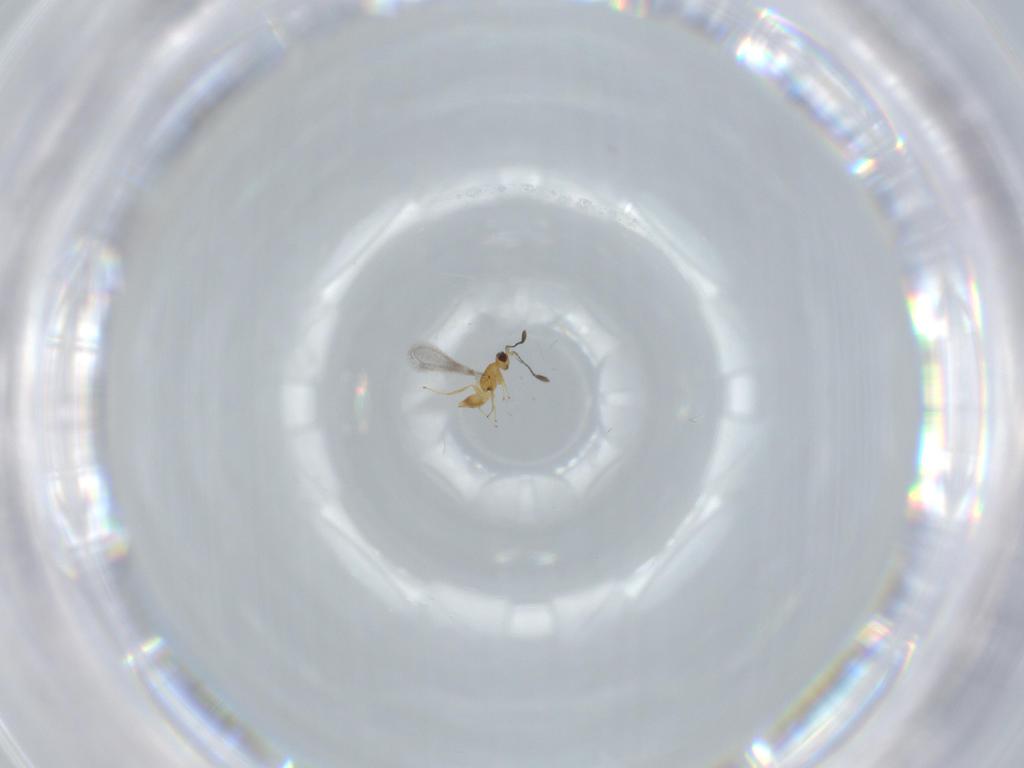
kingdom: Animalia
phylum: Arthropoda
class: Insecta
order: Hymenoptera
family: Mymaridae
